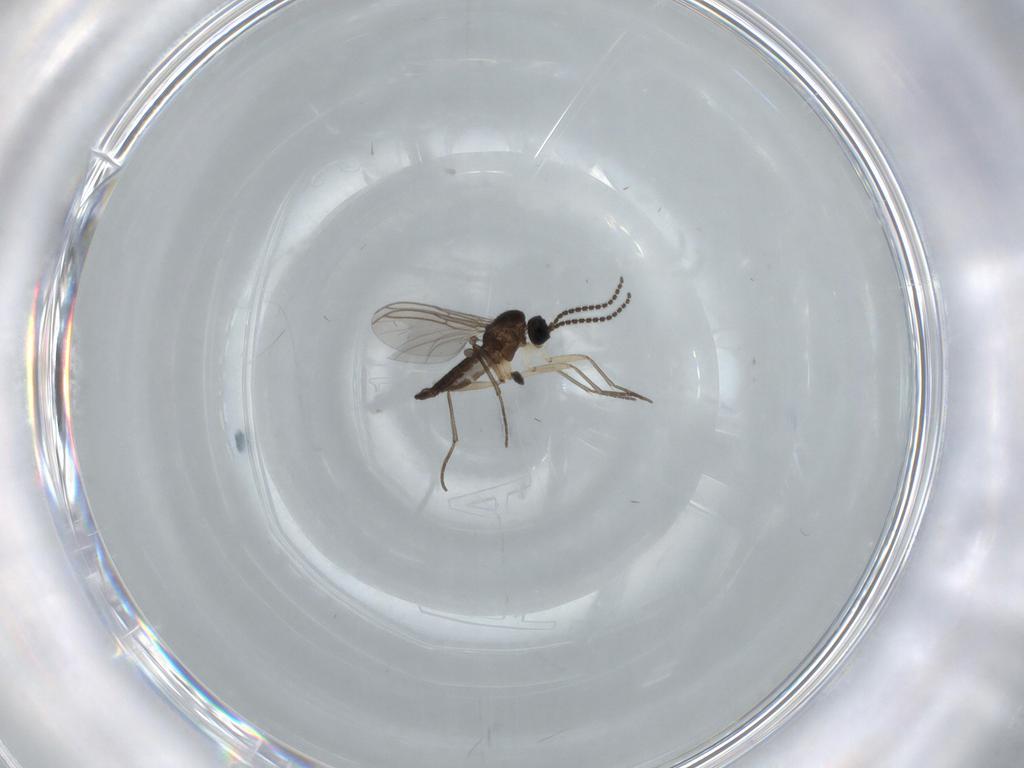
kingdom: Animalia
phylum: Arthropoda
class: Insecta
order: Diptera
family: Sciaridae
